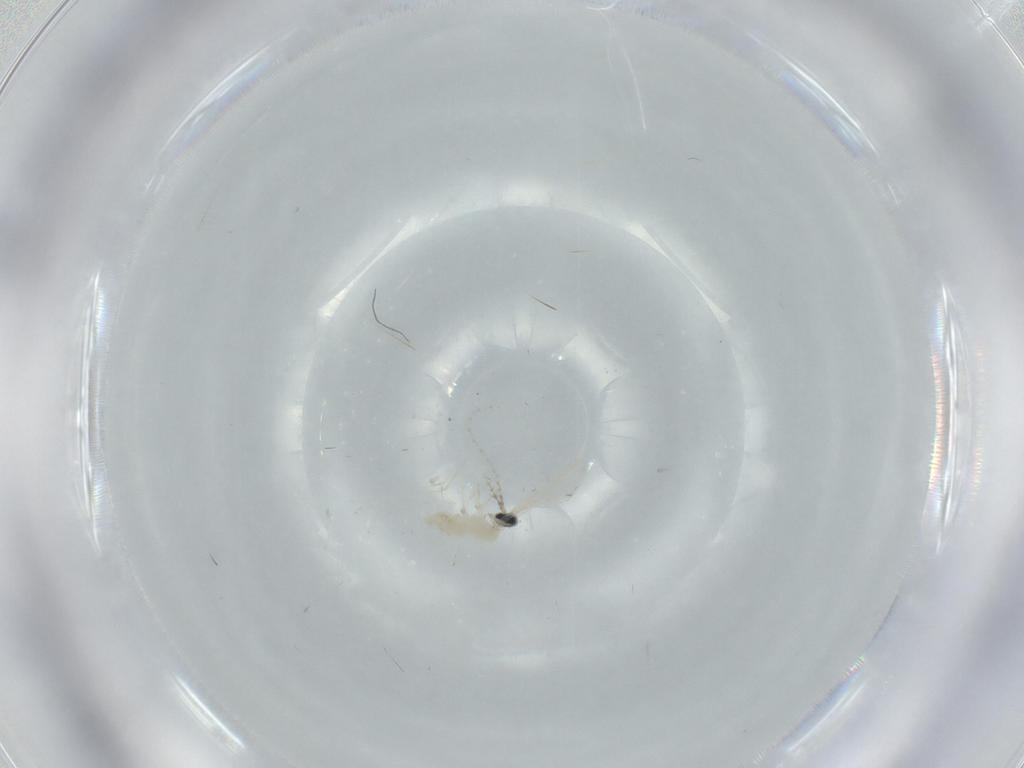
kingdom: Animalia
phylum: Arthropoda
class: Insecta
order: Diptera
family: Cecidomyiidae
